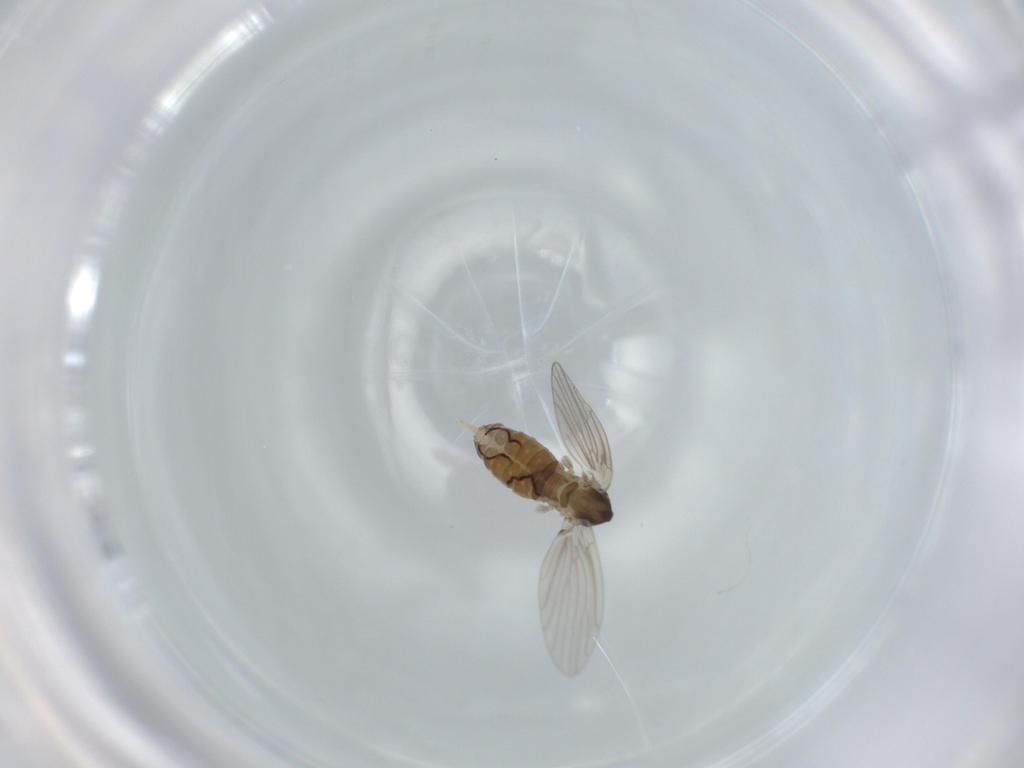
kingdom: Animalia
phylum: Arthropoda
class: Insecta
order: Diptera
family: Psychodidae
